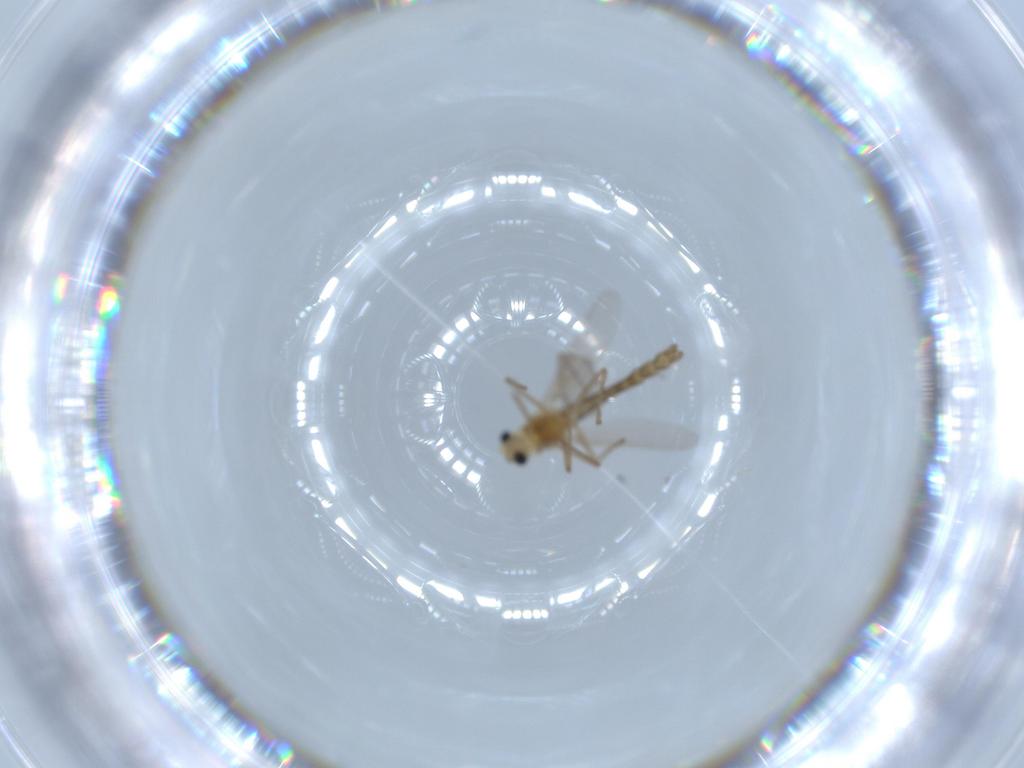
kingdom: Animalia
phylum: Arthropoda
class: Insecta
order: Diptera
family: Chironomidae
